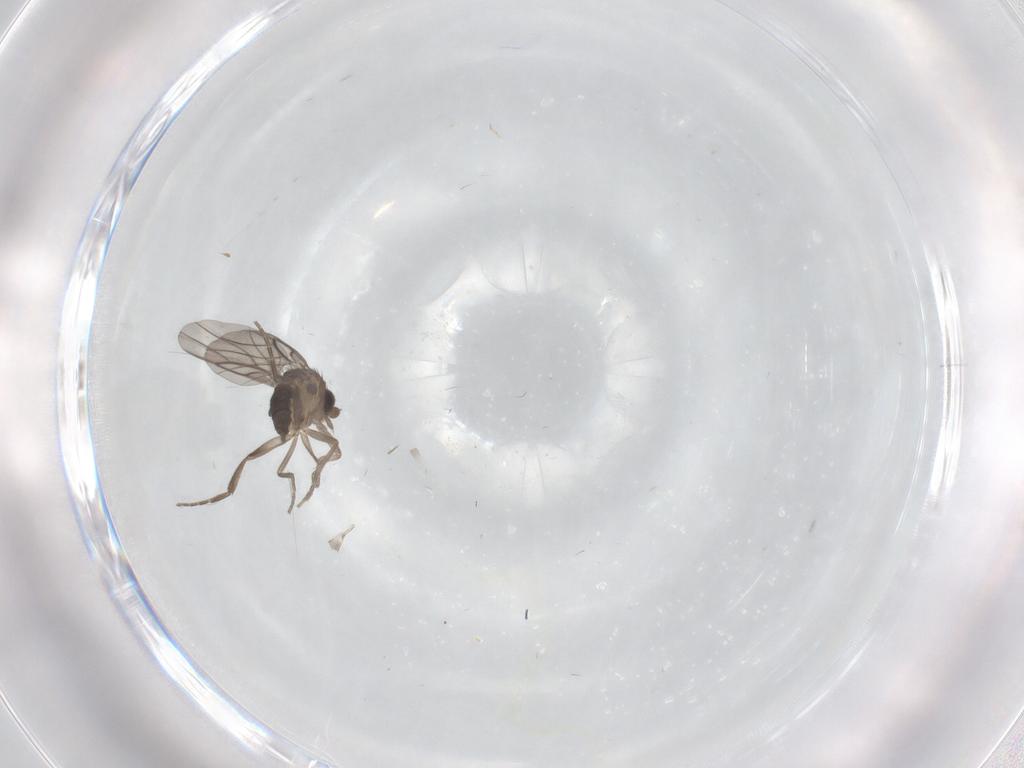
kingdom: Animalia
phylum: Arthropoda
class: Insecta
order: Diptera
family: Phoridae
